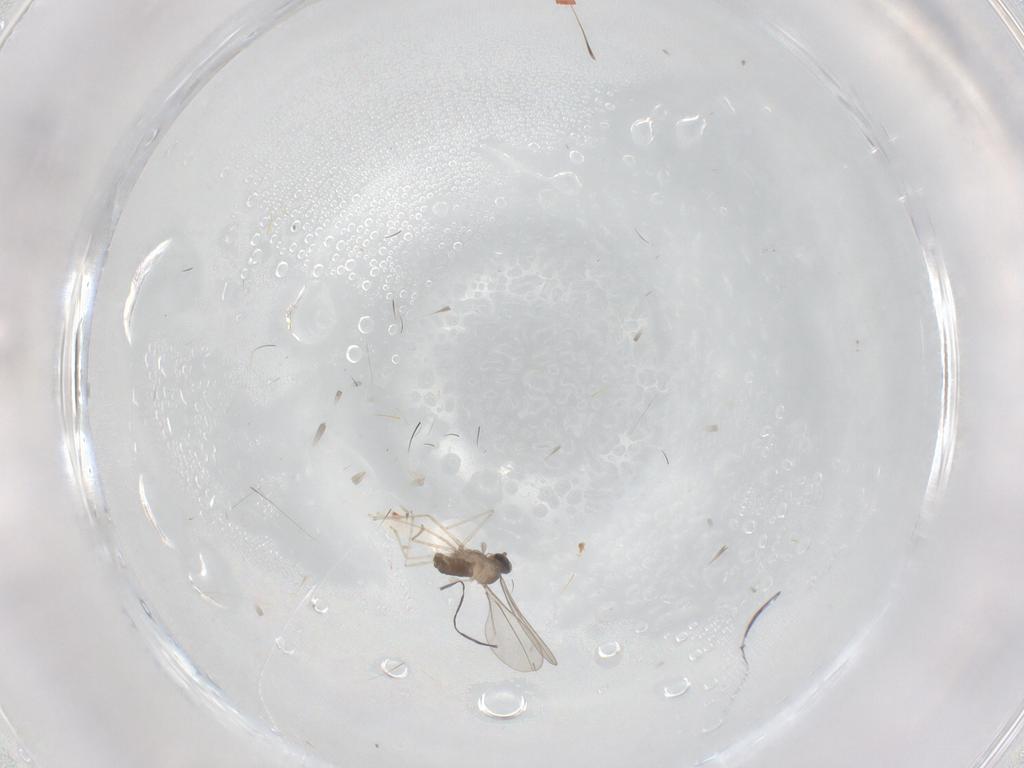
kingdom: Animalia
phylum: Arthropoda
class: Insecta
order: Diptera
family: Cecidomyiidae
